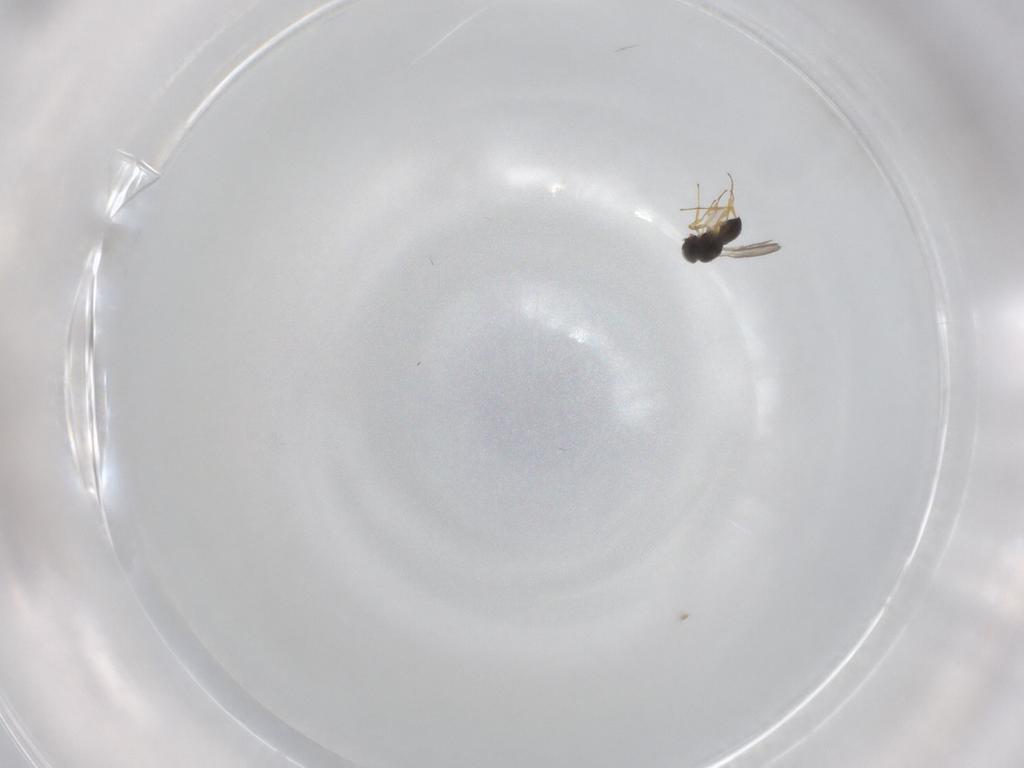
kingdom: Animalia
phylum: Arthropoda
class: Insecta
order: Hymenoptera
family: Scelionidae
